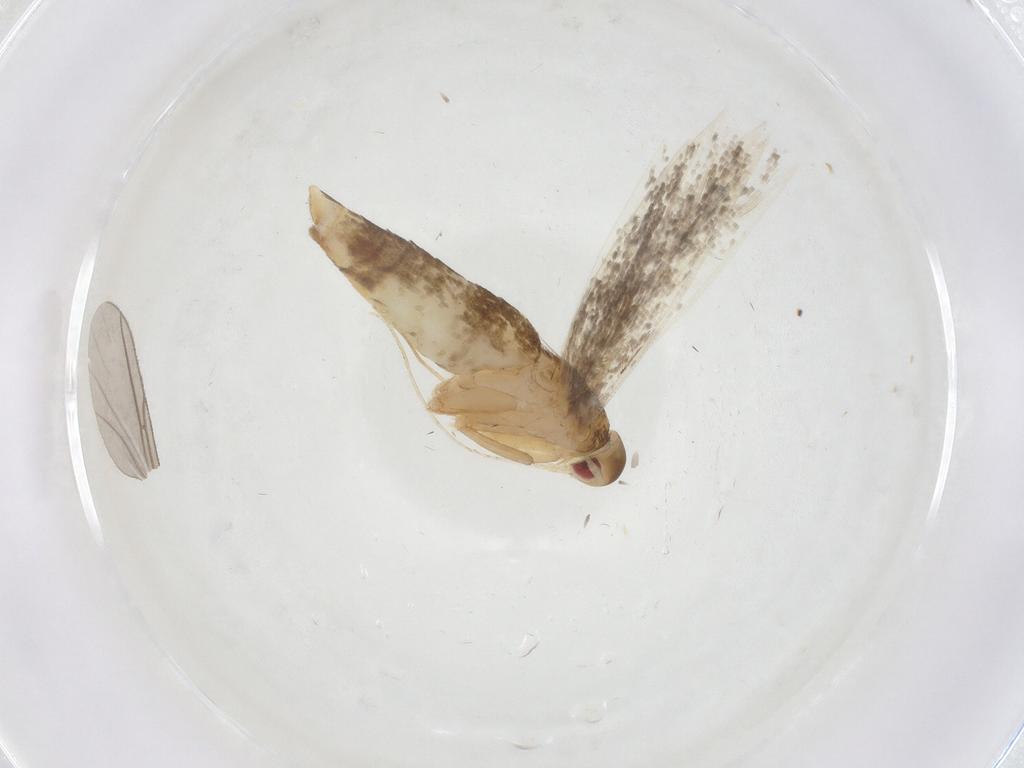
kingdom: Animalia
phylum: Arthropoda
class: Insecta
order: Lepidoptera
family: Cosmopterigidae
